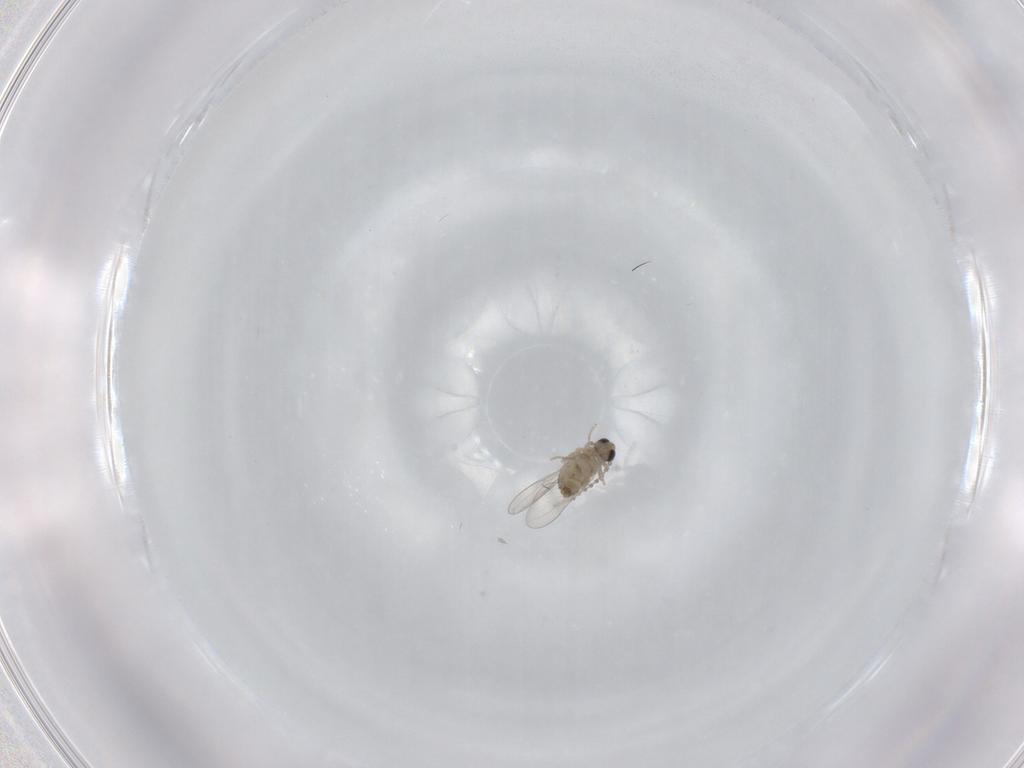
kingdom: Animalia
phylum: Arthropoda
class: Insecta
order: Diptera
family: Cecidomyiidae
